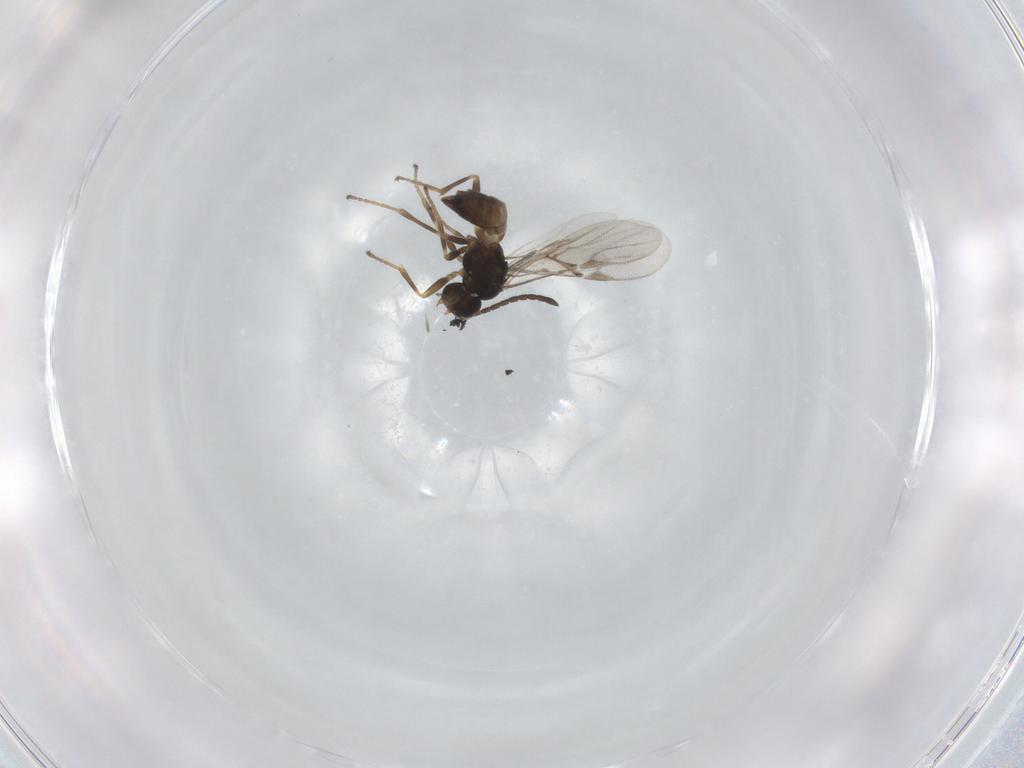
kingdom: Animalia
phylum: Arthropoda
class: Insecta
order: Hymenoptera
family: Braconidae
